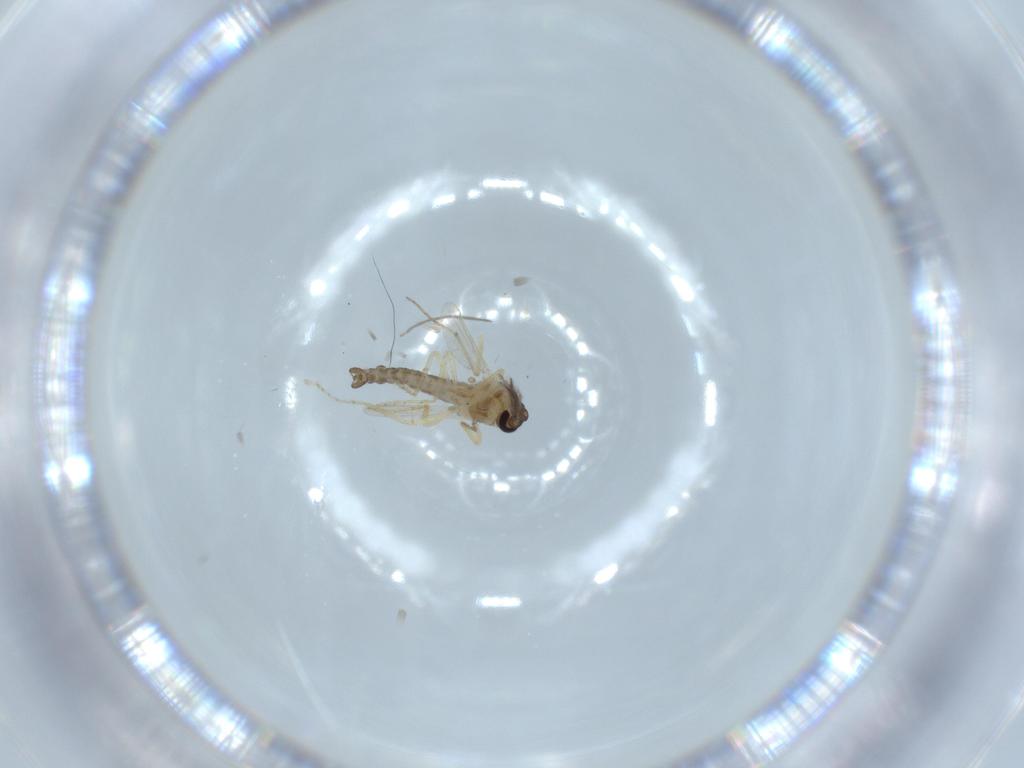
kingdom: Animalia
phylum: Arthropoda
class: Insecta
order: Diptera
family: Ceratopogonidae
